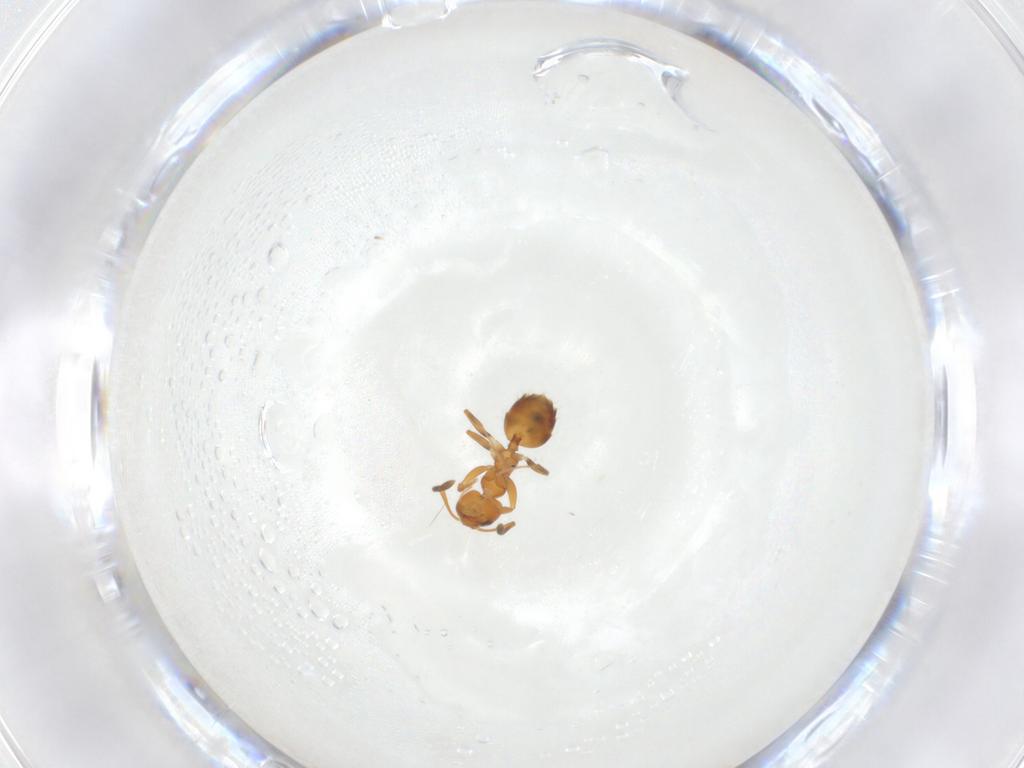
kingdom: Animalia
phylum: Arthropoda
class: Insecta
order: Hymenoptera
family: Formicidae
